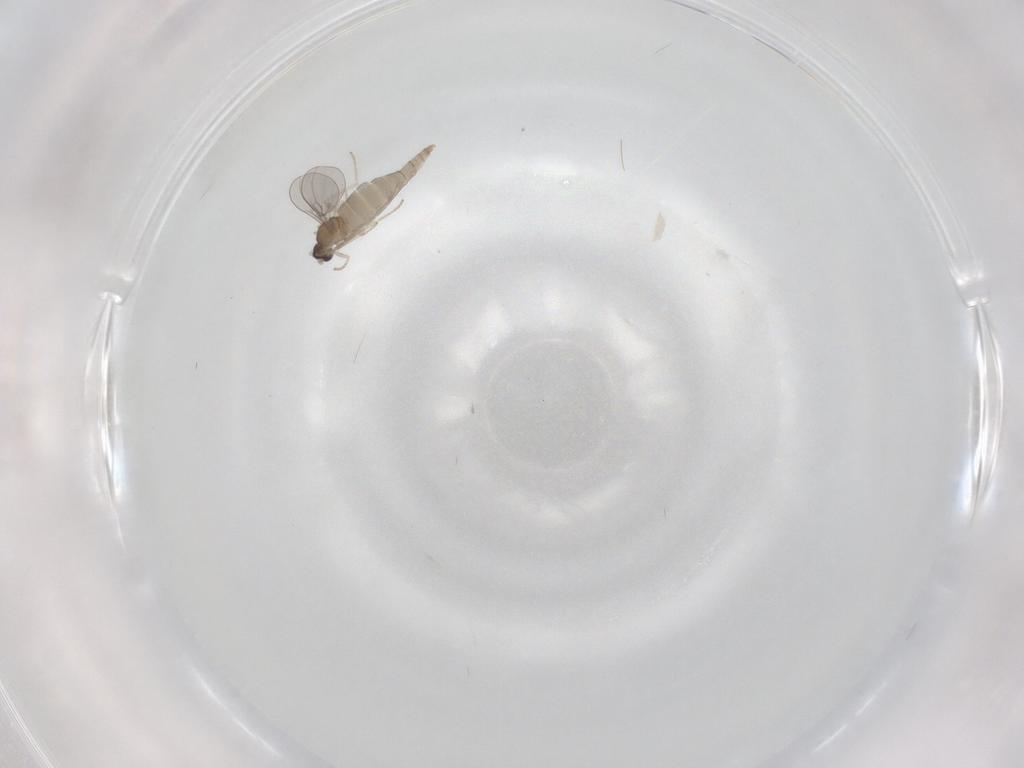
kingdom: Animalia
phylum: Arthropoda
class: Insecta
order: Diptera
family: Cecidomyiidae
